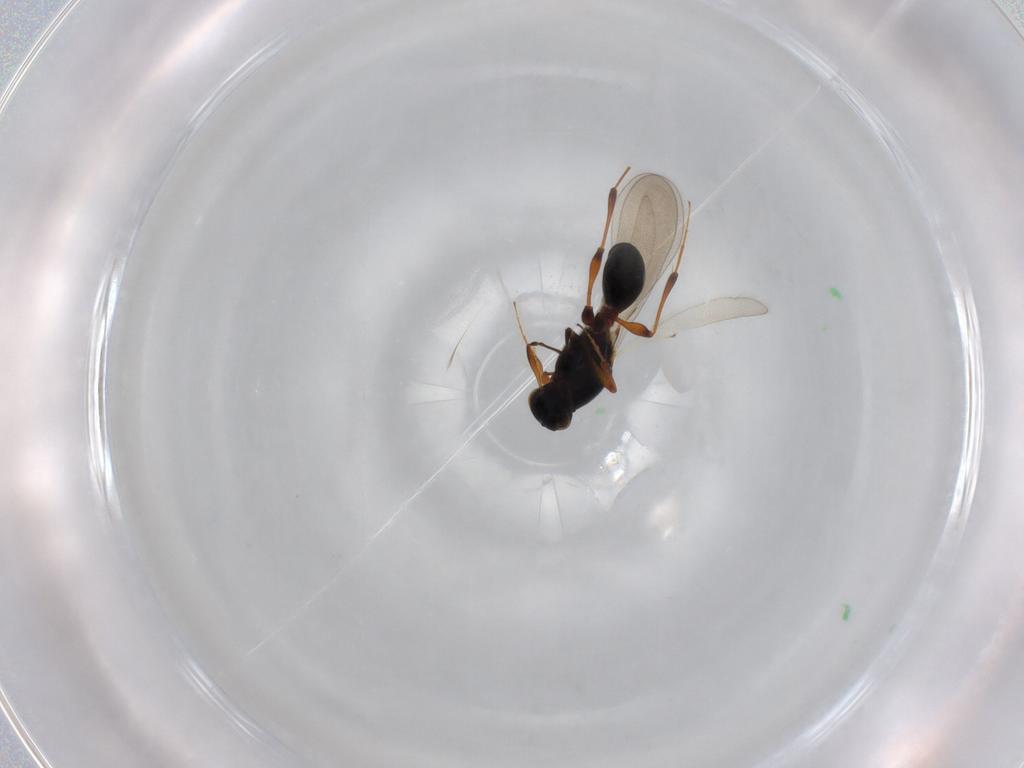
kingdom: Animalia
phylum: Arthropoda
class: Insecta
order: Hymenoptera
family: Platygastridae
